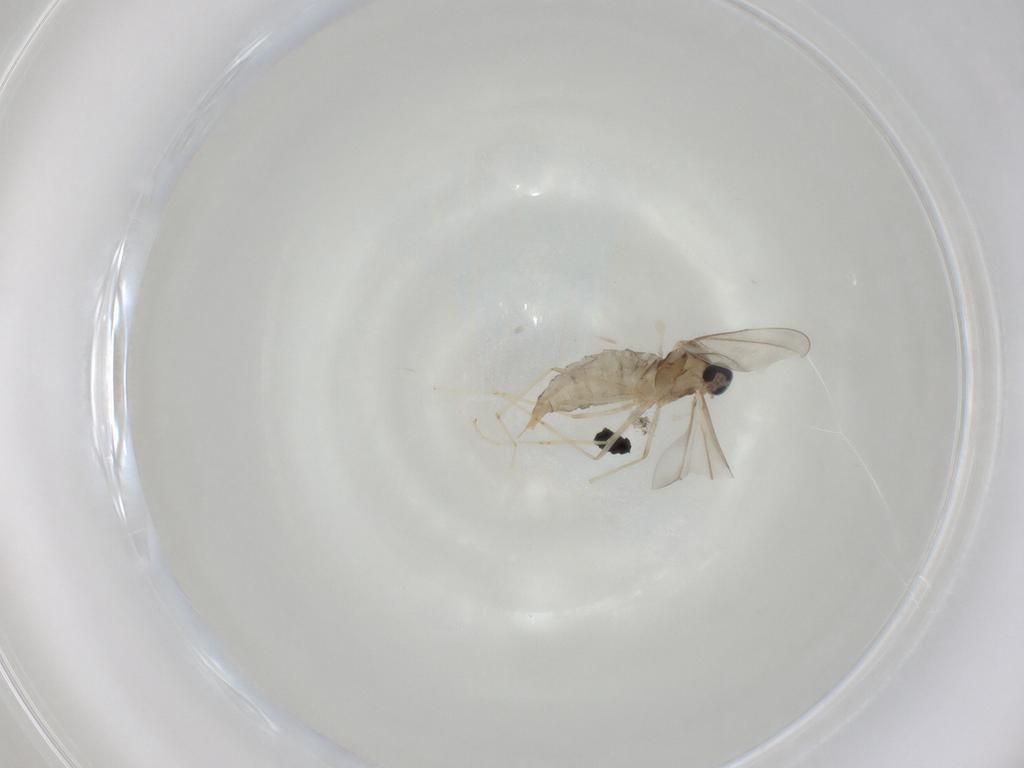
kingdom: Animalia
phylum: Arthropoda
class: Insecta
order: Diptera
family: Cecidomyiidae
